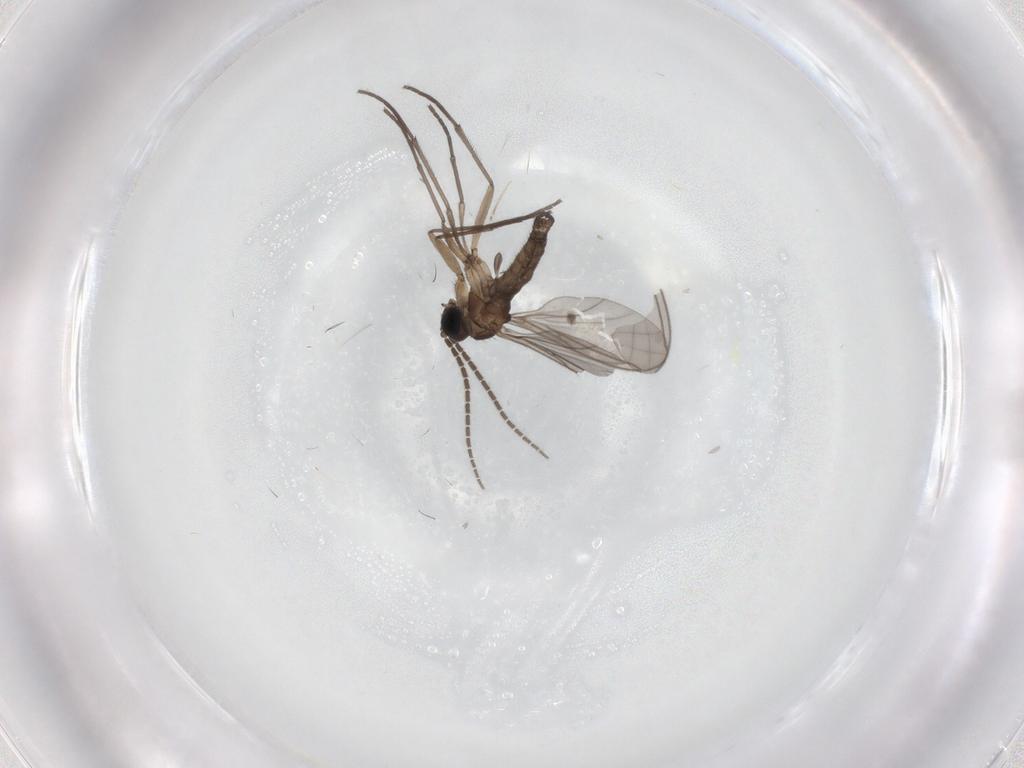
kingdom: Animalia
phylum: Arthropoda
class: Insecta
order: Diptera
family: Sciaridae
